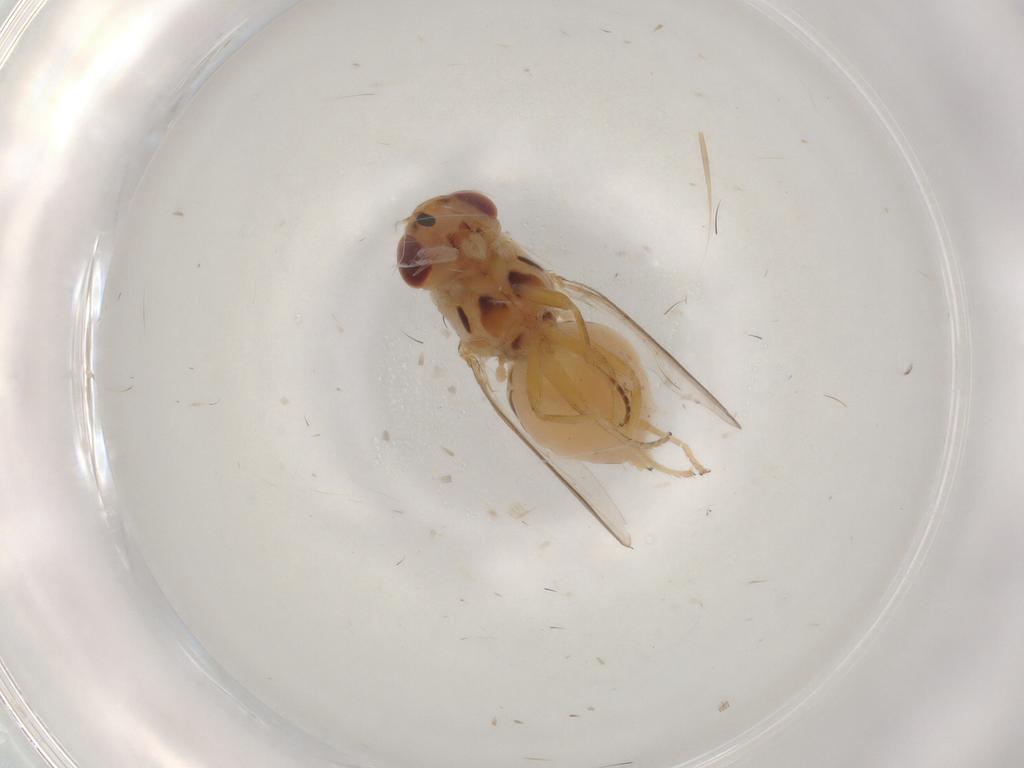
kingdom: Animalia
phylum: Arthropoda
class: Insecta
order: Diptera
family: Chloropidae
